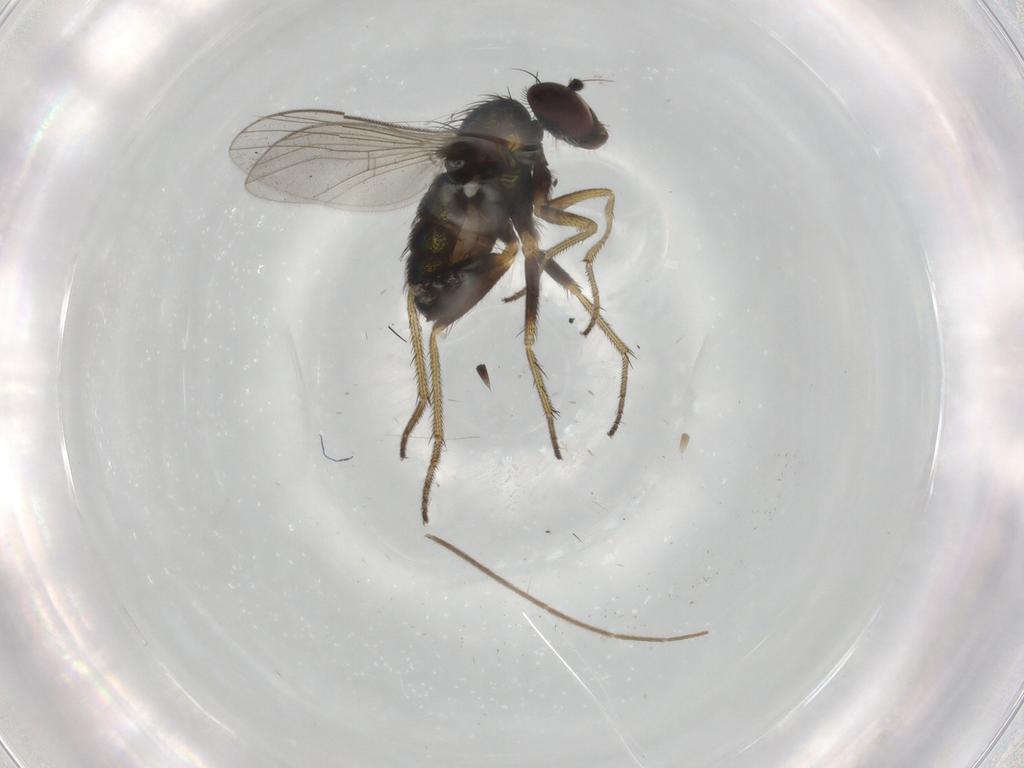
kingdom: Animalia
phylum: Arthropoda
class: Insecta
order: Diptera
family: Dolichopodidae
